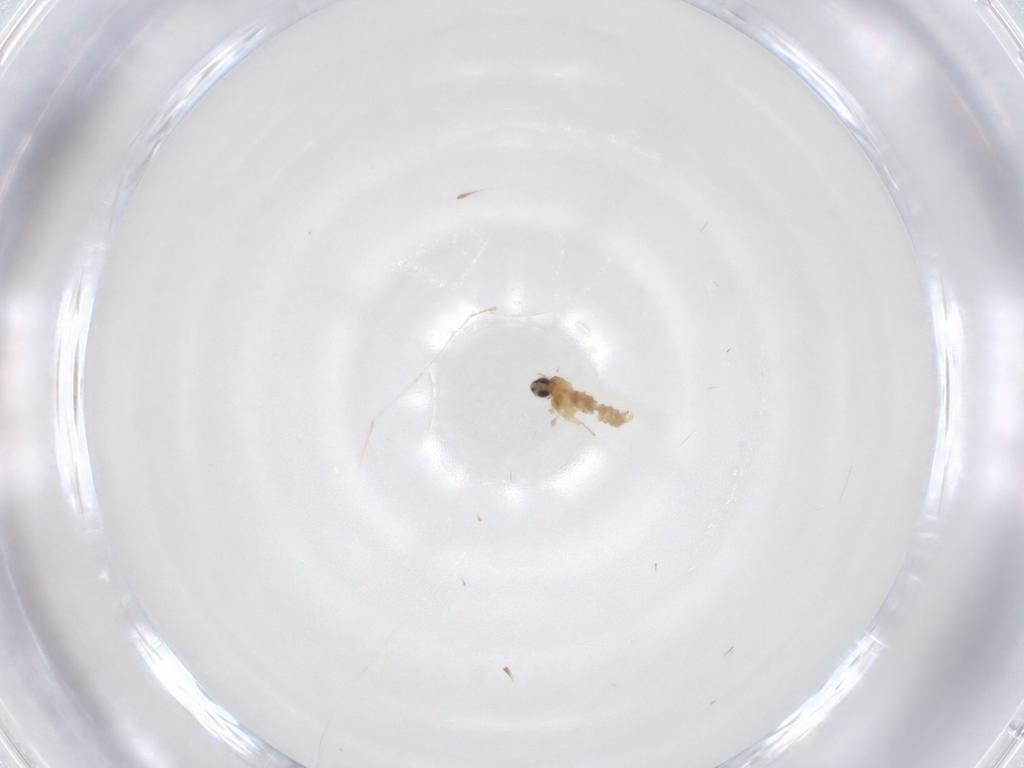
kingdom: Animalia
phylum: Arthropoda
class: Insecta
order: Diptera
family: Cecidomyiidae
